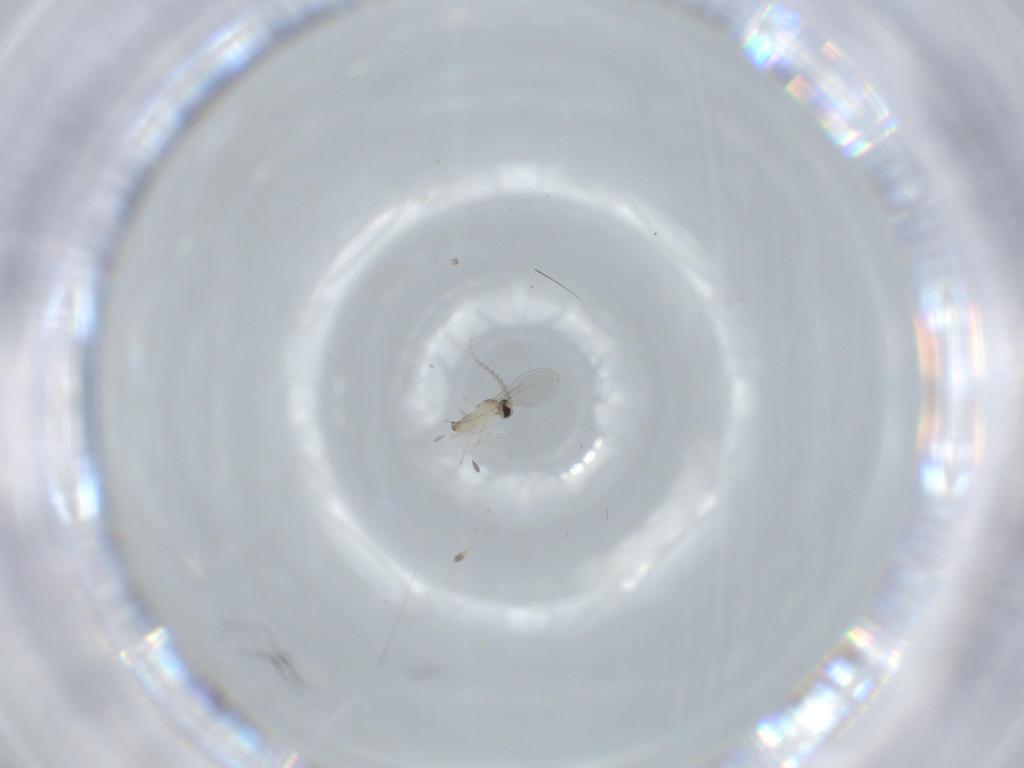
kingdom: Animalia
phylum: Arthropoda
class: Insecta
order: Diptera
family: Cecidomyiidae
